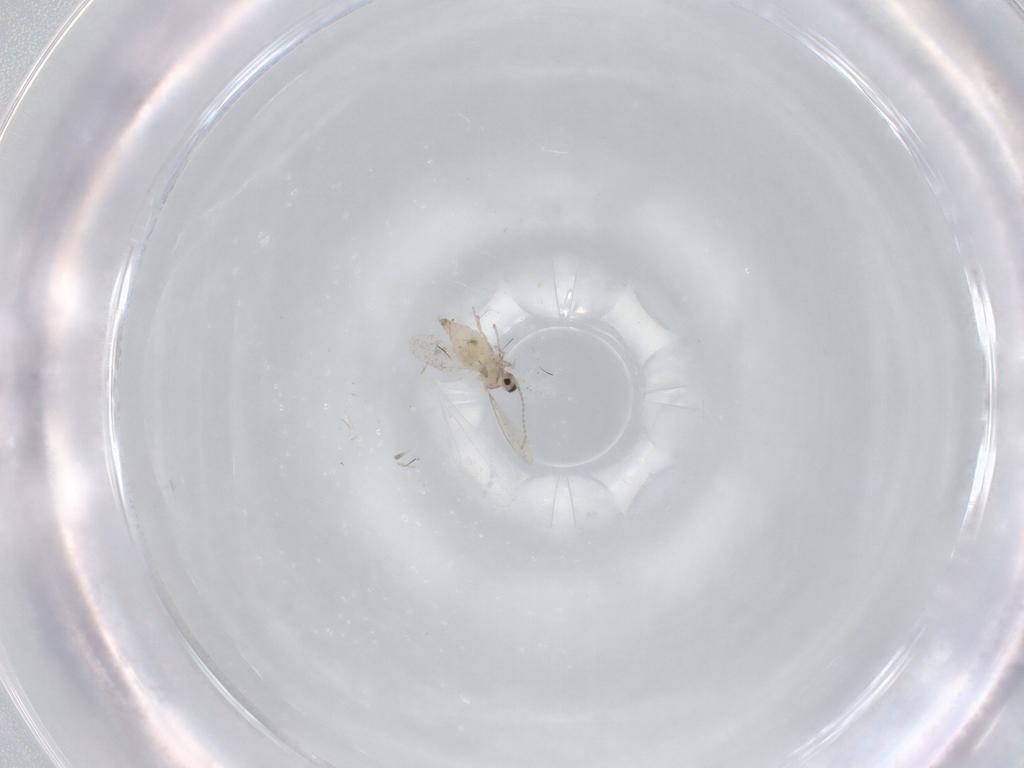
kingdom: Animalia
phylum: Arthropoda
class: Insecta
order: Diptera
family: Cecidomyiidae
